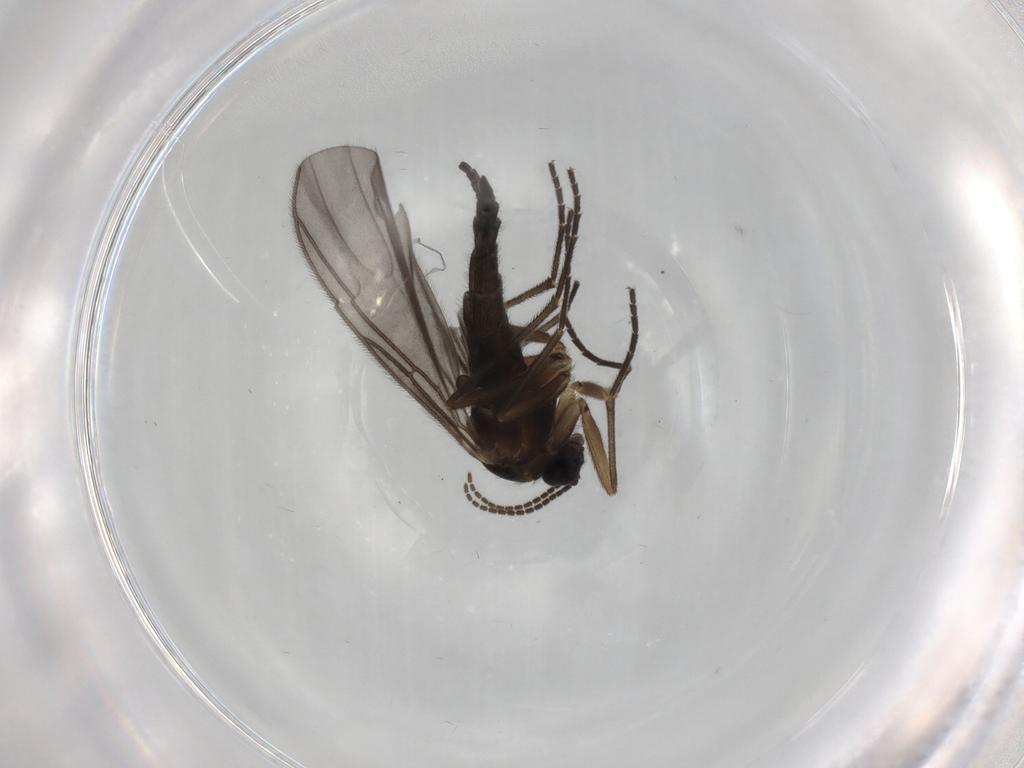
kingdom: Animalia
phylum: Arthropoda
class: Insecta
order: Diptera
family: Sciaridae
